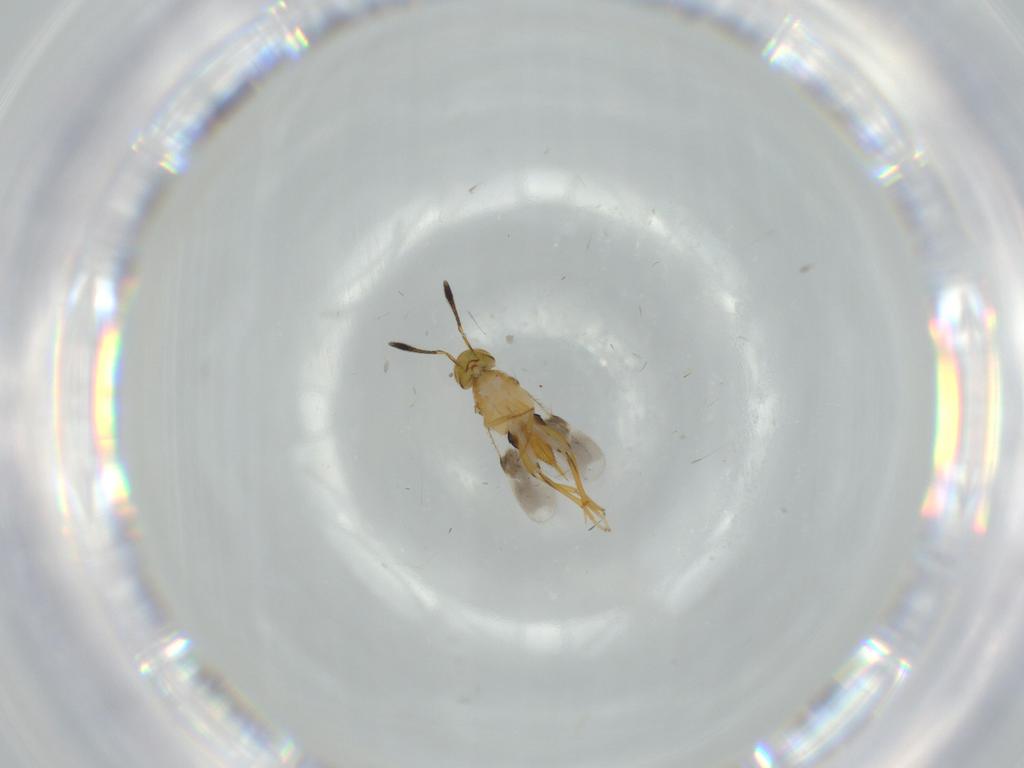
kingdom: Animalia
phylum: Arthropoda
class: Insecta
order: Hymenoptera
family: Encyrtidae
